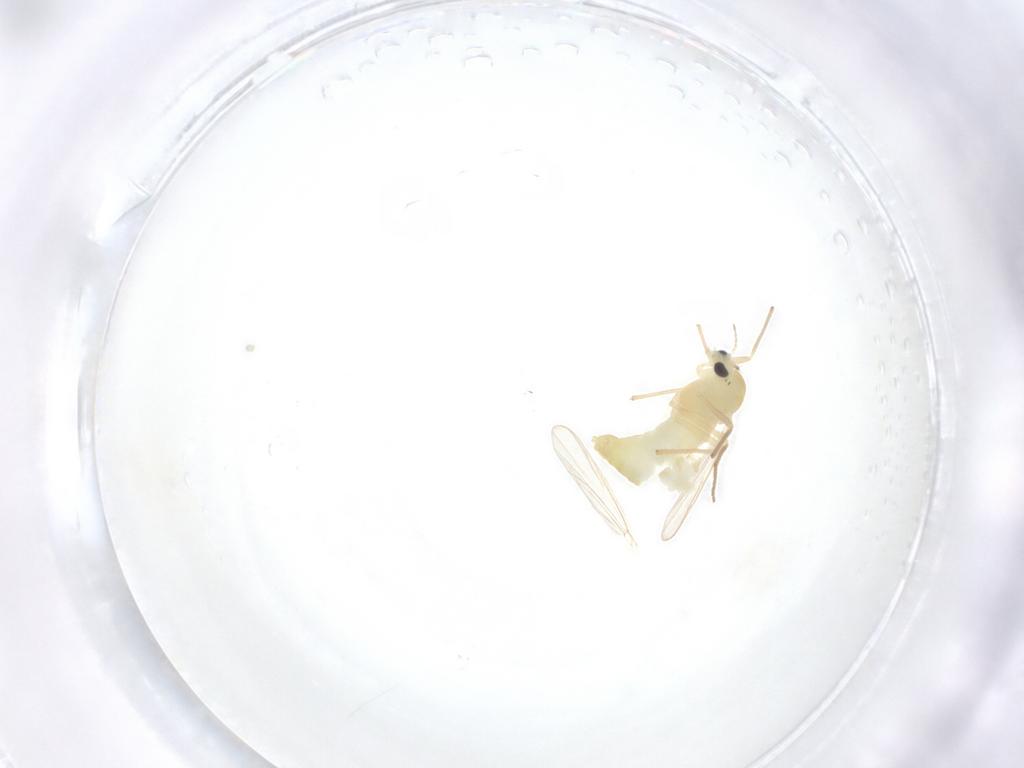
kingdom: Animalia
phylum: Arthropoda
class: Insecta
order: Diptera
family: Chironomidae
